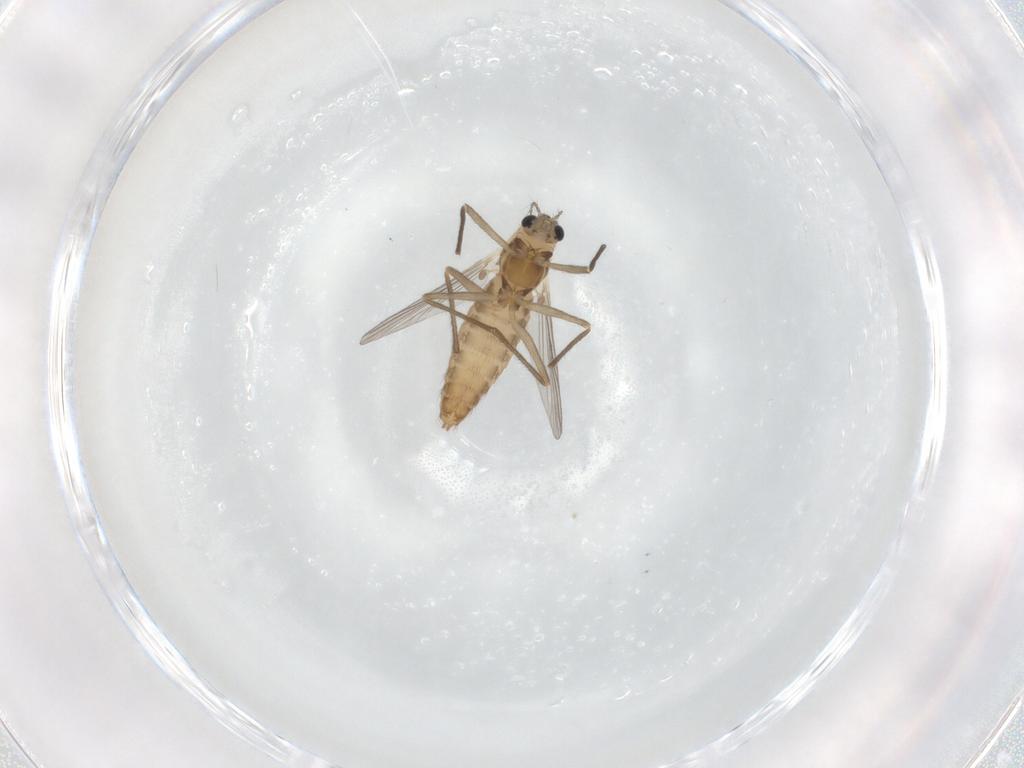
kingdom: Animalia
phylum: Arthropoda
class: Insecta
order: Diptera
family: Chironomidae
